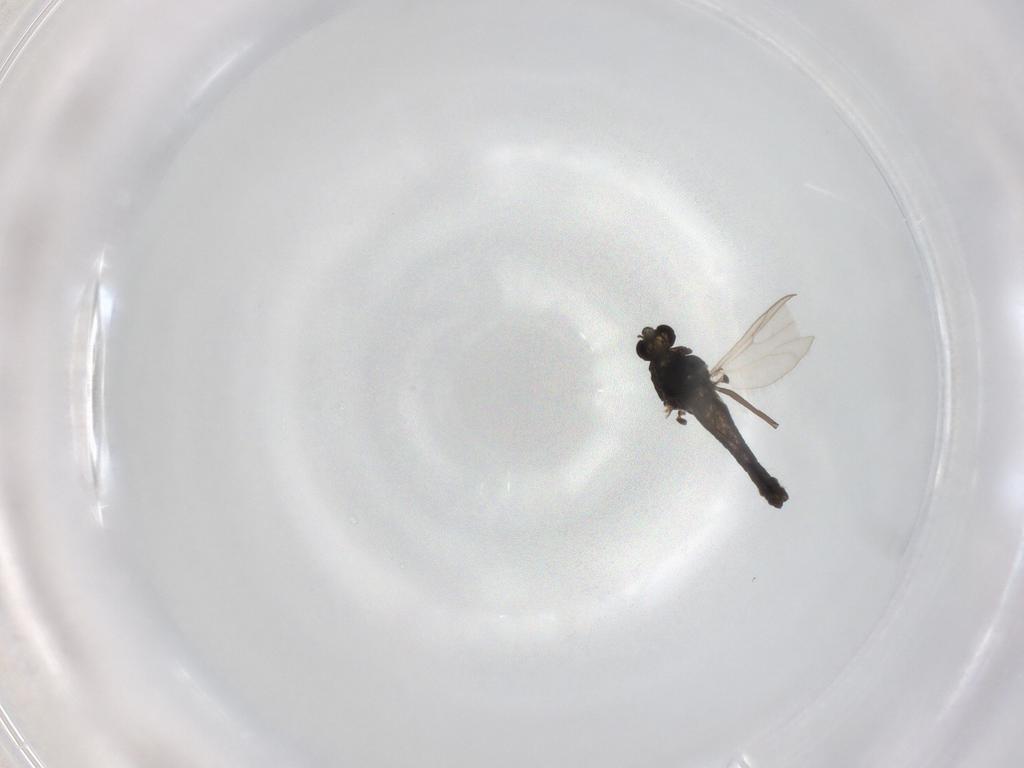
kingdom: Animalia
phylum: Arthropoda
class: Insecta
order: Diptera
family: Chironomidae
